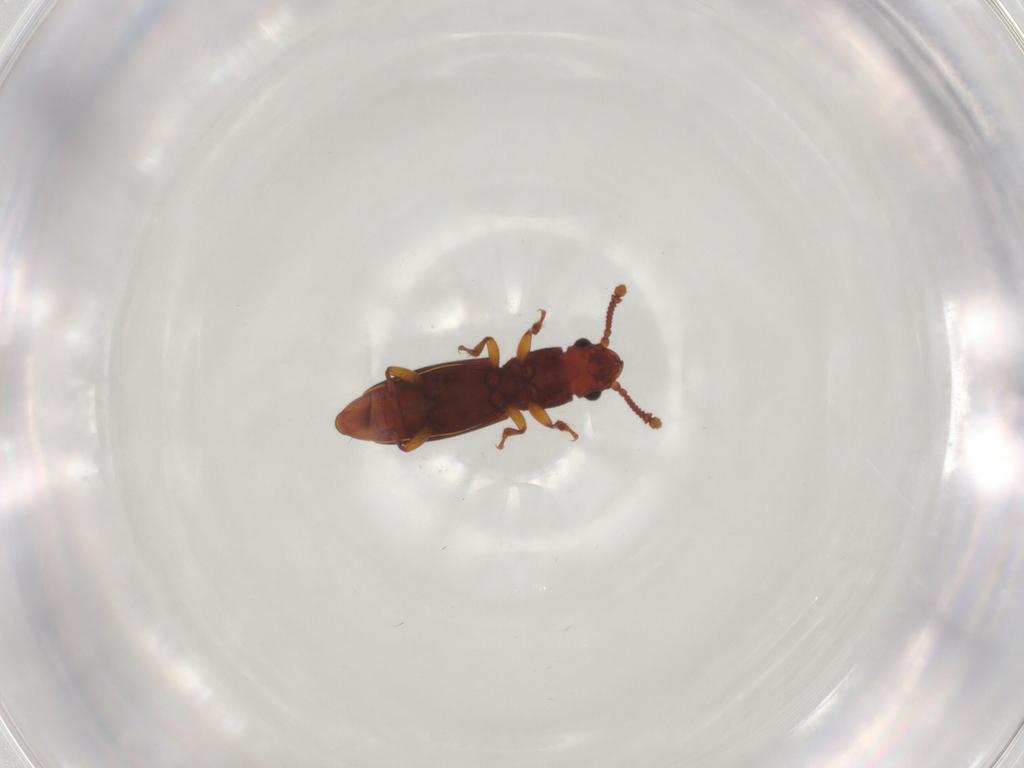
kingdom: Animalia
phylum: Arthropoda
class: Insecta
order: Coleoptera
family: Monotomidae
